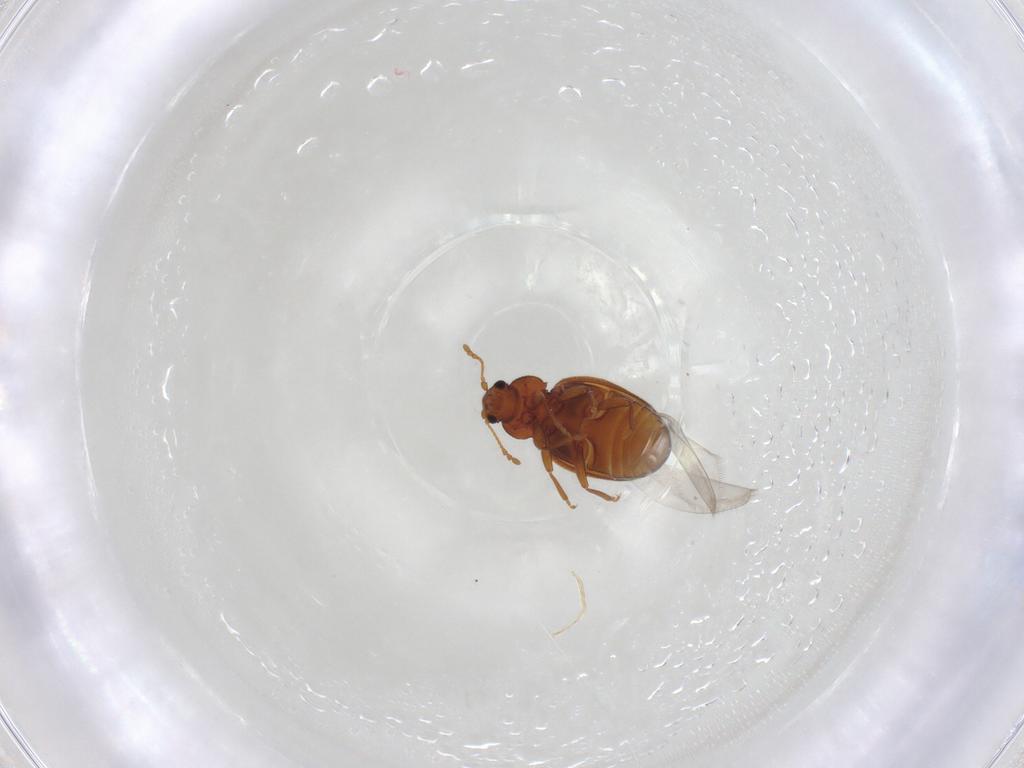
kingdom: Animalia
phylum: Arthropoda
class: Insecta
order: Coleoptera
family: Latridiidae
